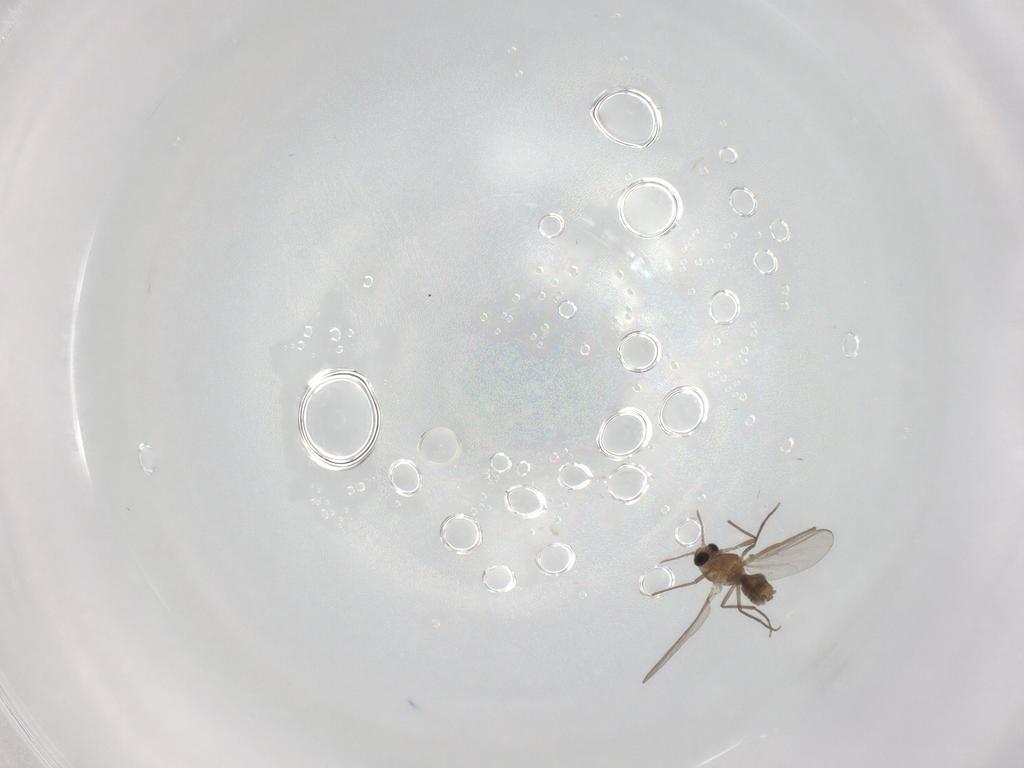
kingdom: Animalia
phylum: Arthropoda
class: Insecta
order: Diptera
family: Chironomidae
